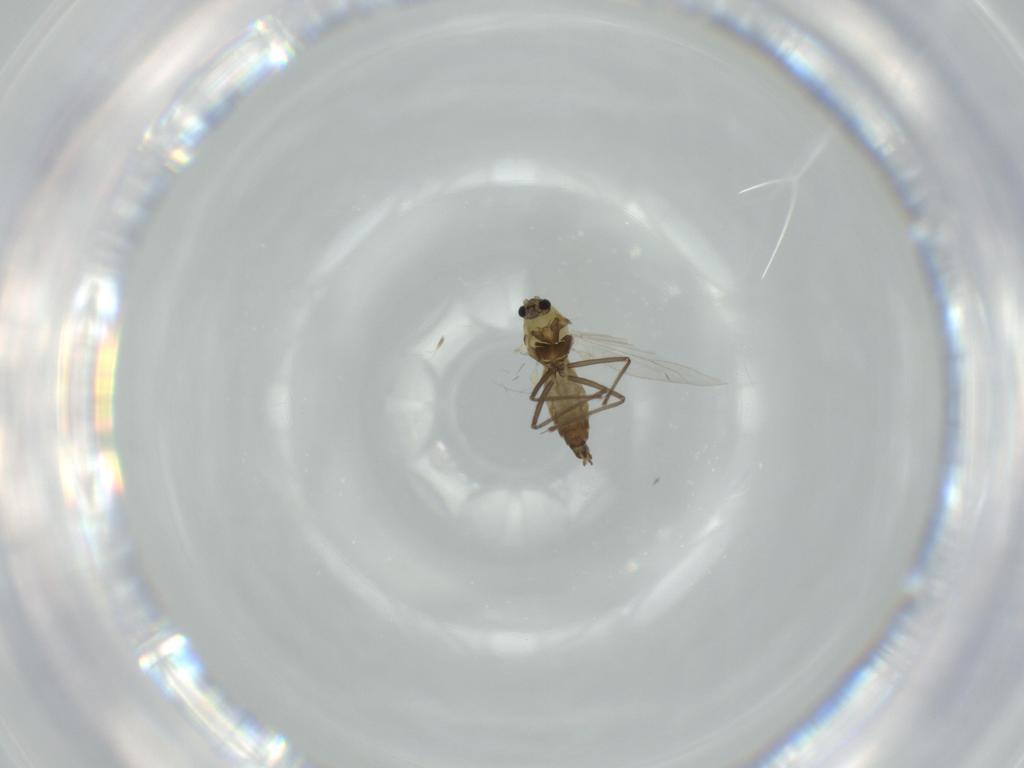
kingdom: Animalia
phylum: Arthropoda
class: Insecta
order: Diptera
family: Chironomidae
